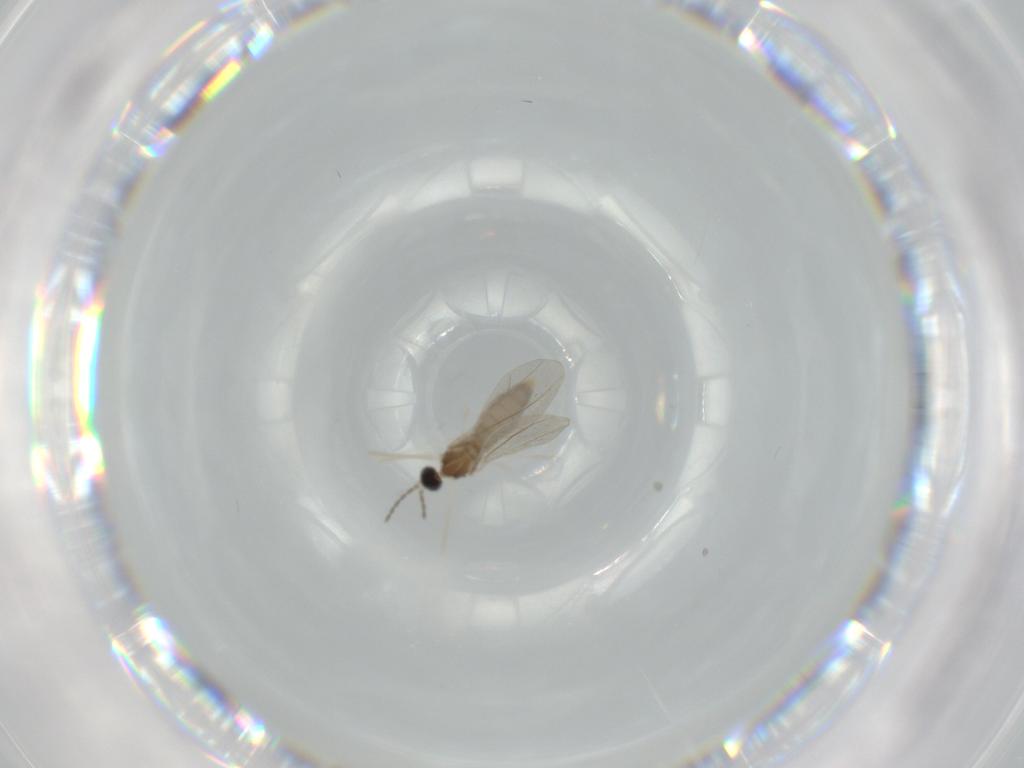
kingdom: Animalia
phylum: Arthropoda
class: Insecta
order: Diptera
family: Cecidomyiidae
